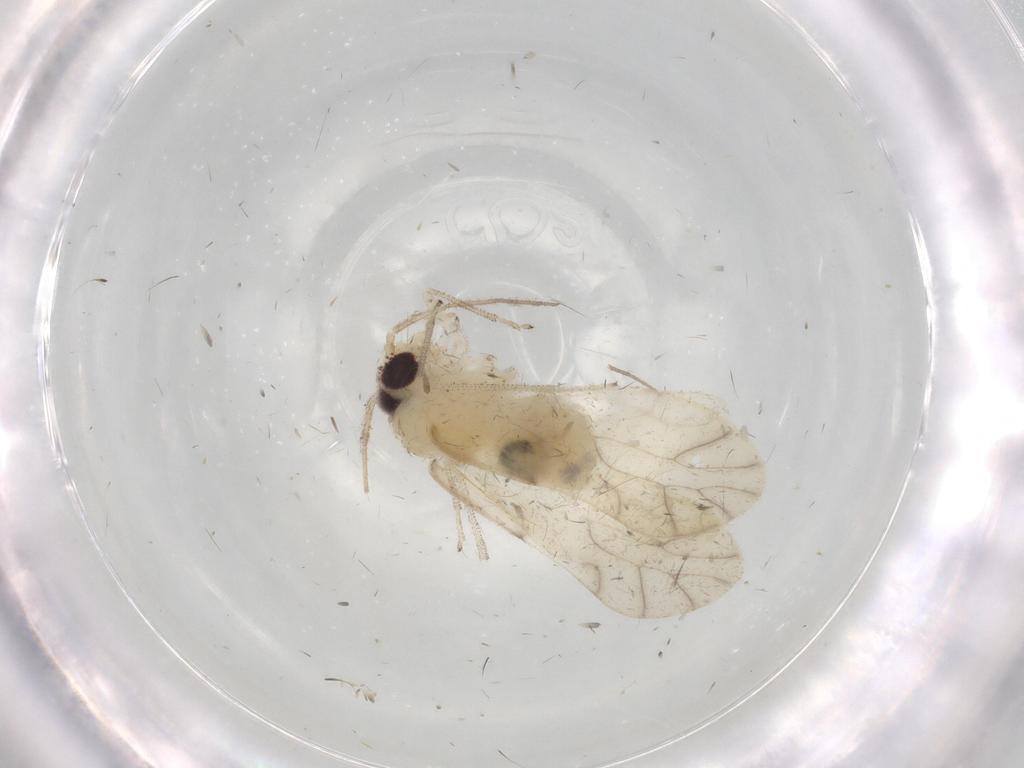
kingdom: Animalia
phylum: Arthropoda
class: Insecta
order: Psocodea
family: Caeciliusidae
